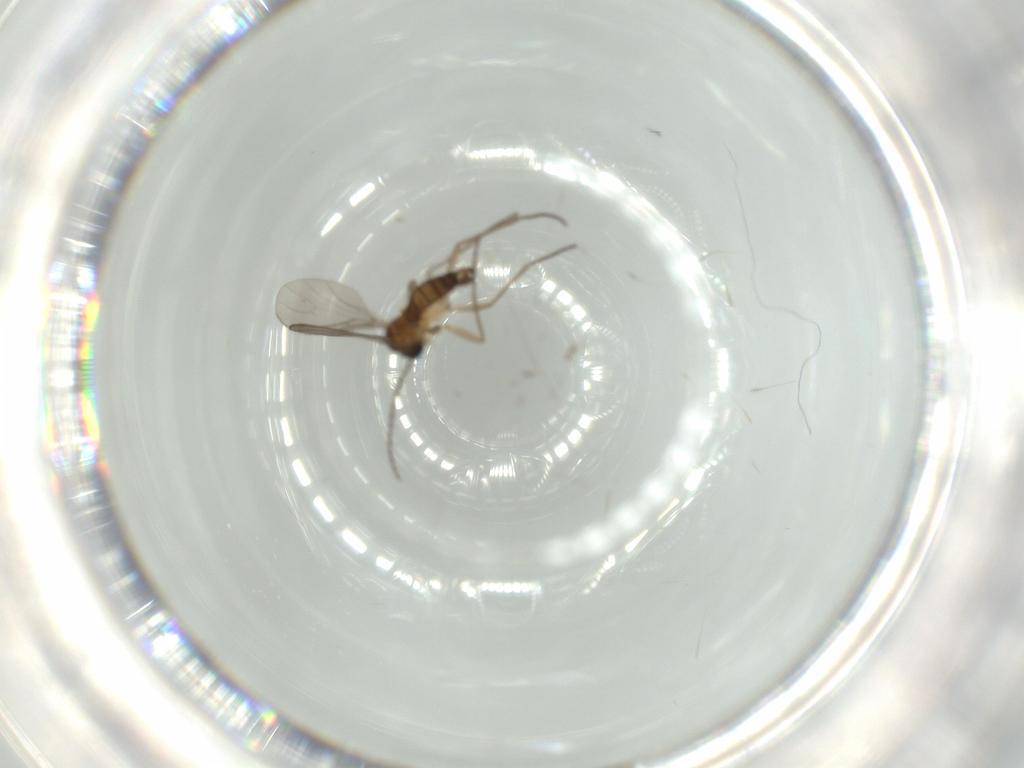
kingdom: Animalia
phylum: Arthropoda
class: Insecta
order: Diptera
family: Sciaridae
